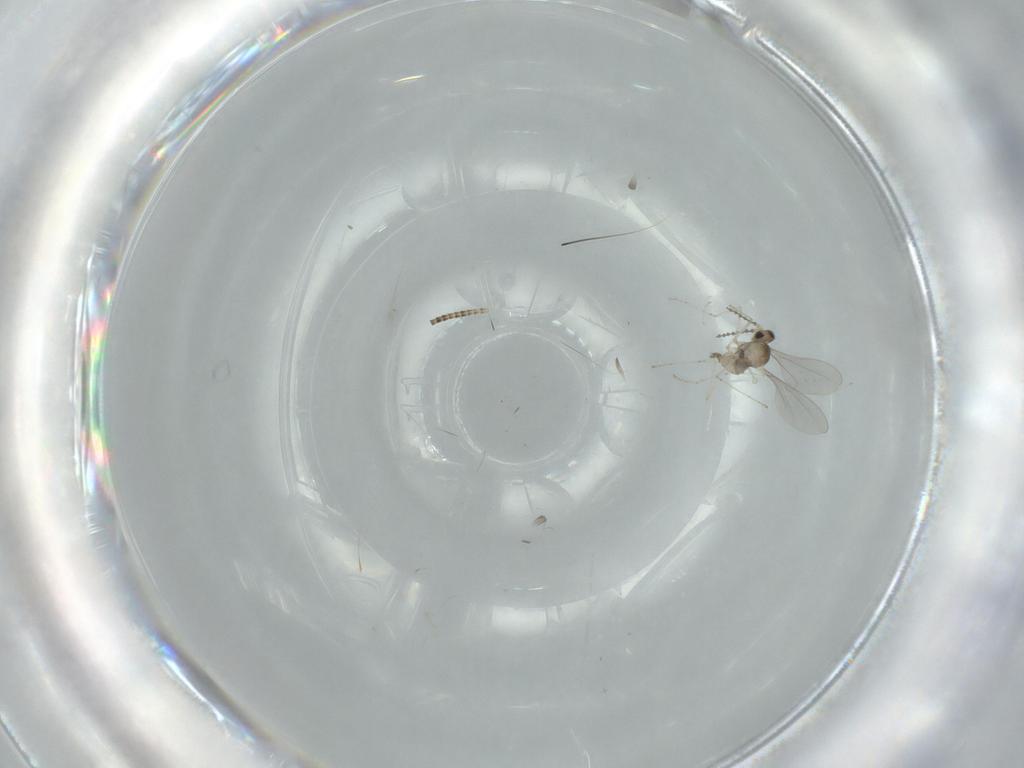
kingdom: Animalia
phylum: Arthropoda
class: Insecta
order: Diptera
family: Cecidomyiidae
